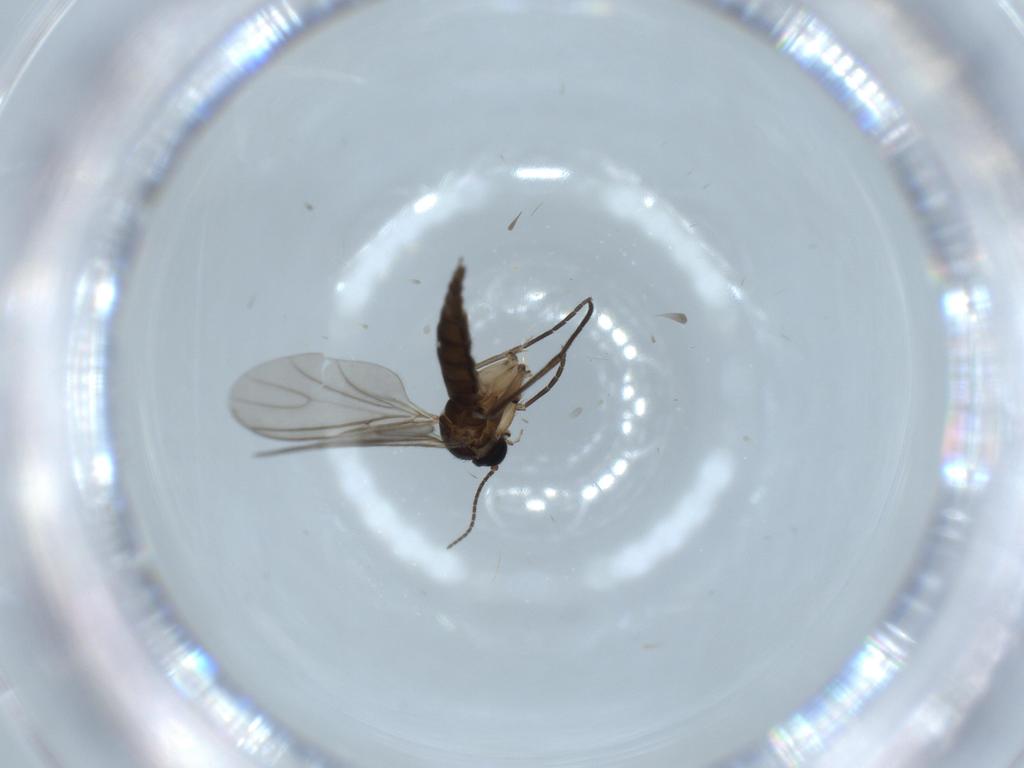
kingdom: Animalia
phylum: Arthropoda
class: Insecta
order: Diptera
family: Sciaridae
